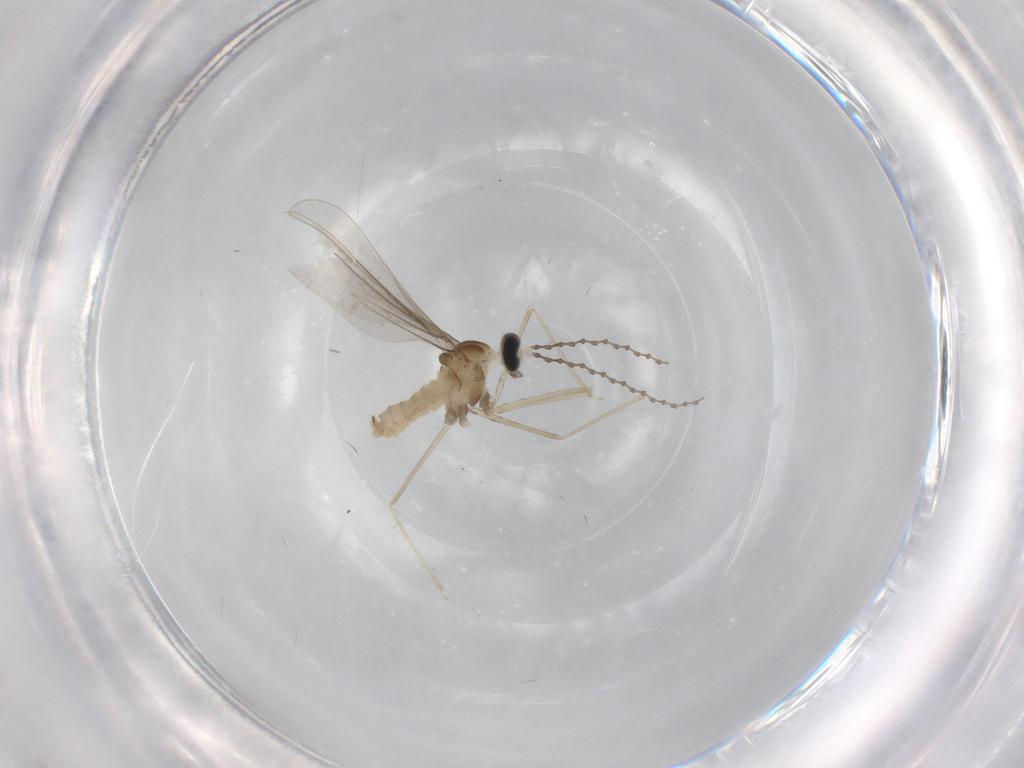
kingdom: Animalia
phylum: Arthropoda
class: Insecta
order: Diptera
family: Cecidomyiidae
